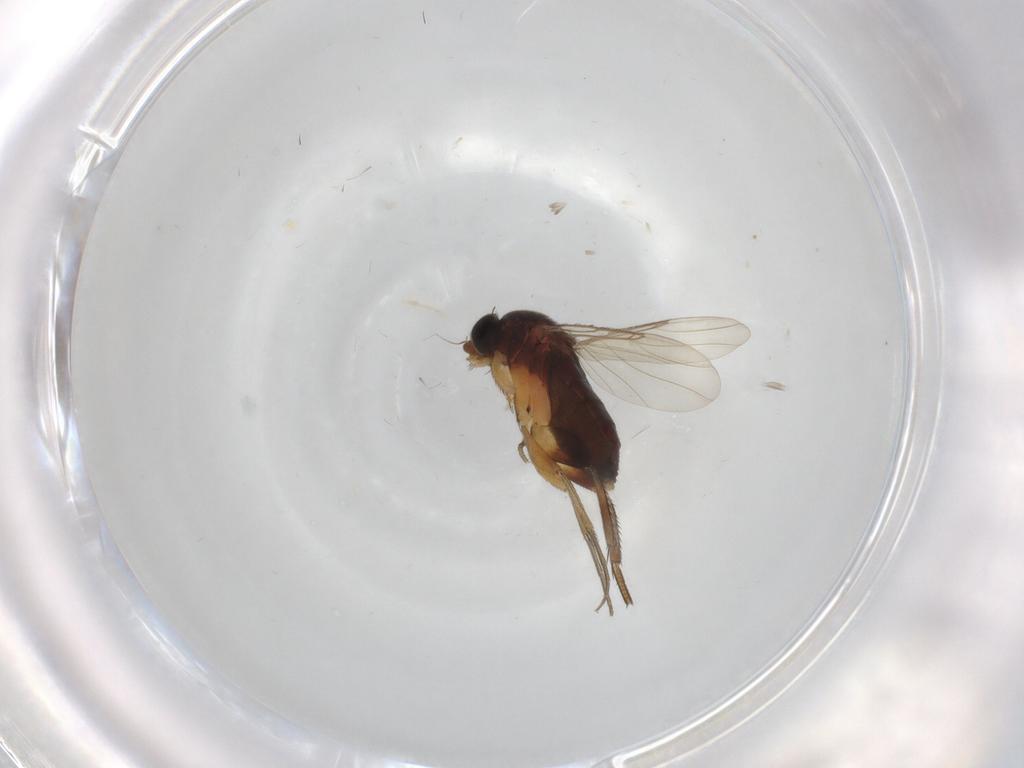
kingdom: Animalia
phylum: Arthropoda
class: Insecta
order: Diptera
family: Phoridae
